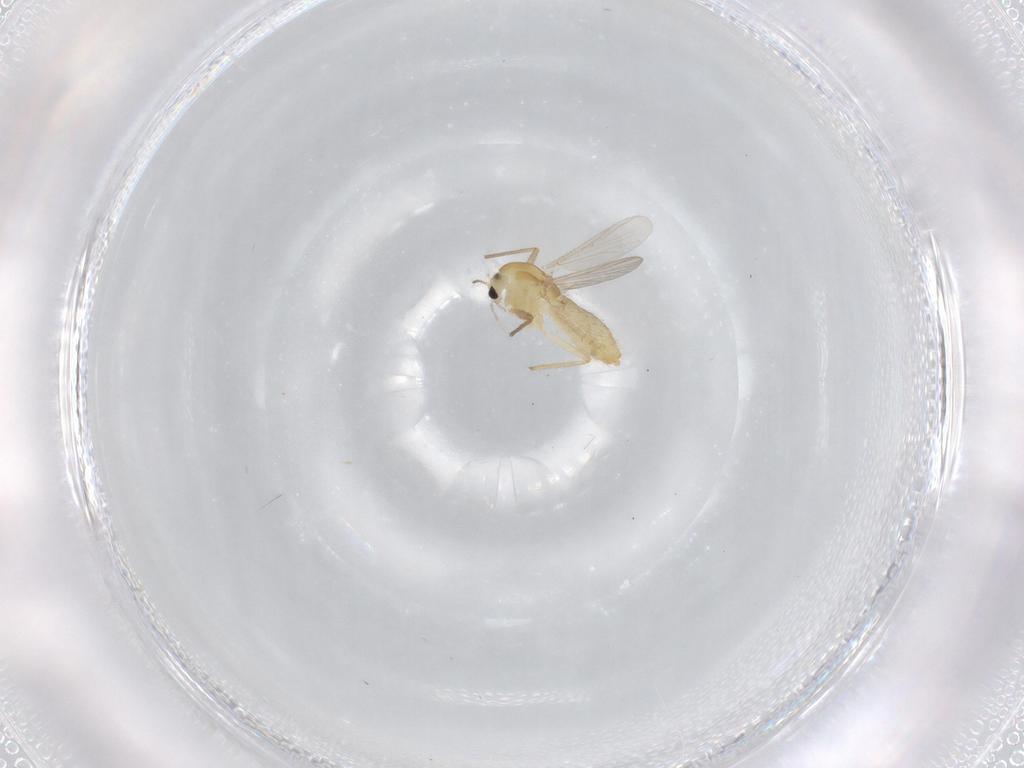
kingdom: Animalia
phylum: Arthropoda
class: Insecta
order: Diptera
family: Chironomidae
